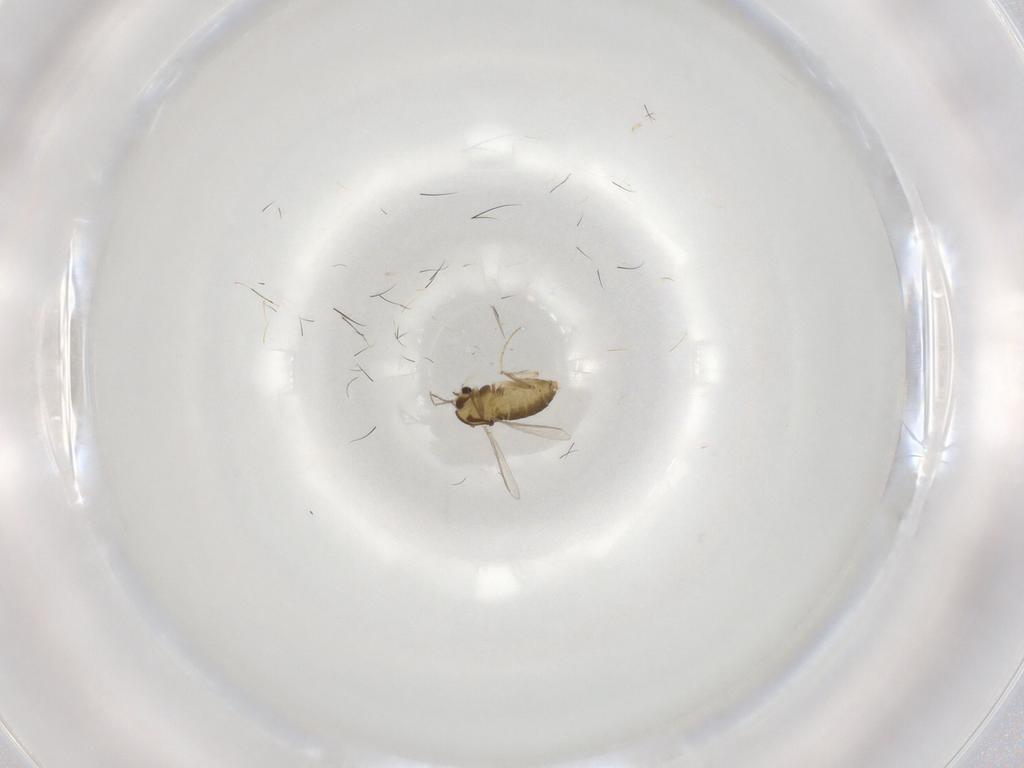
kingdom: Animalia
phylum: Arthropoda
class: Insecta
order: Diptera
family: Chironomidae
